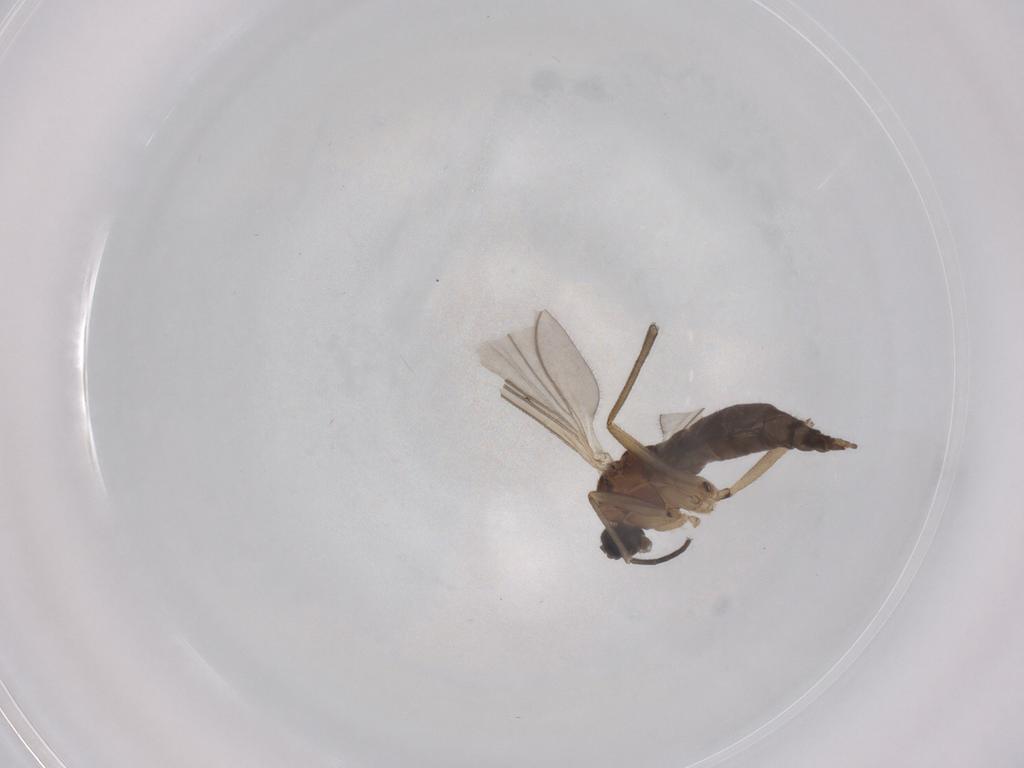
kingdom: Animalia
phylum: Arthropoda
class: Insecta
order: Diptera
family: Sciaridae
